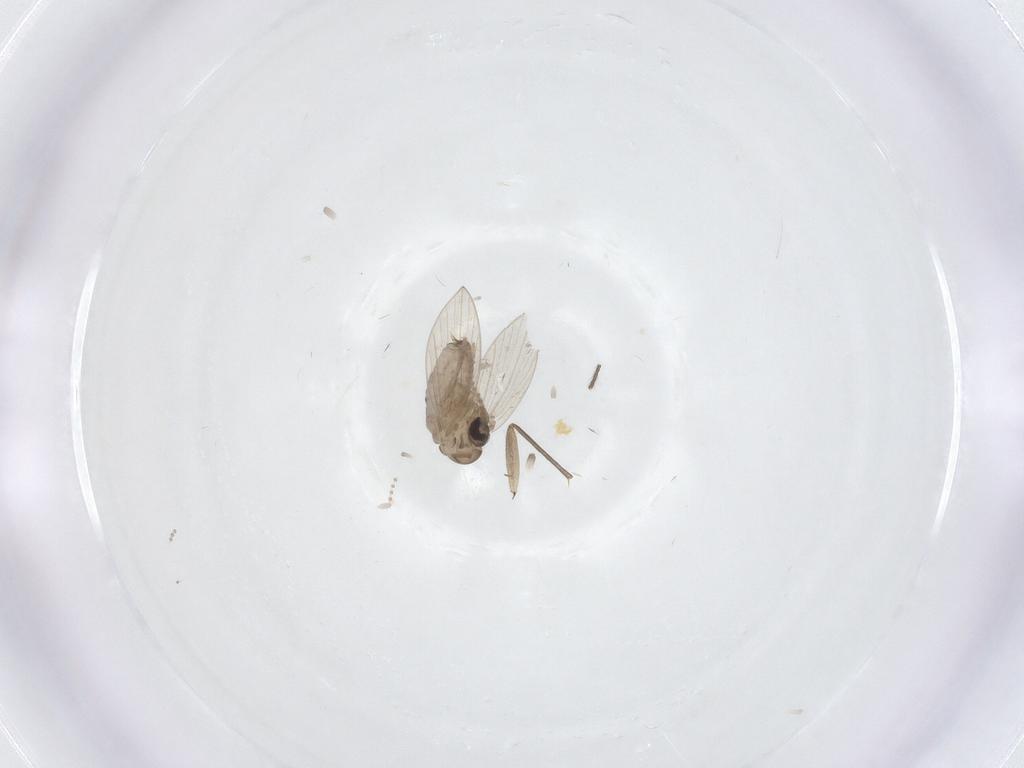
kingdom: Animalia
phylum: Arthropoda
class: Insecta
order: Diptera
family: Psychodidae
